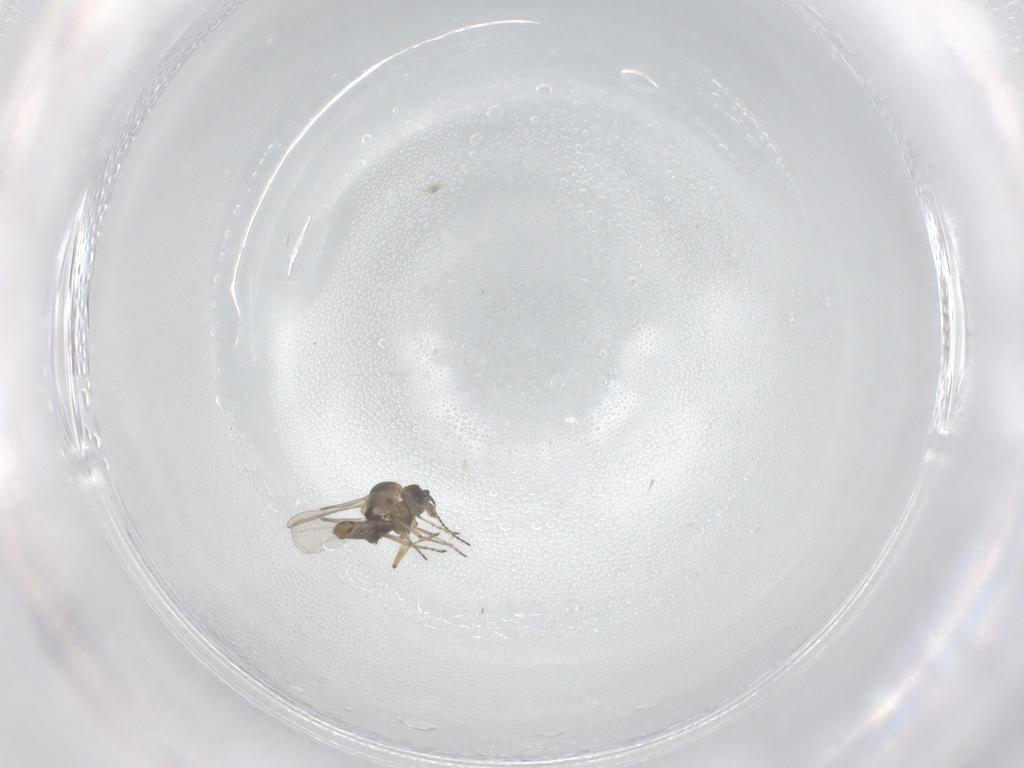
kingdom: Animalia
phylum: Arthropoda
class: Insecta
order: Diptera
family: Ceratopogonidae
